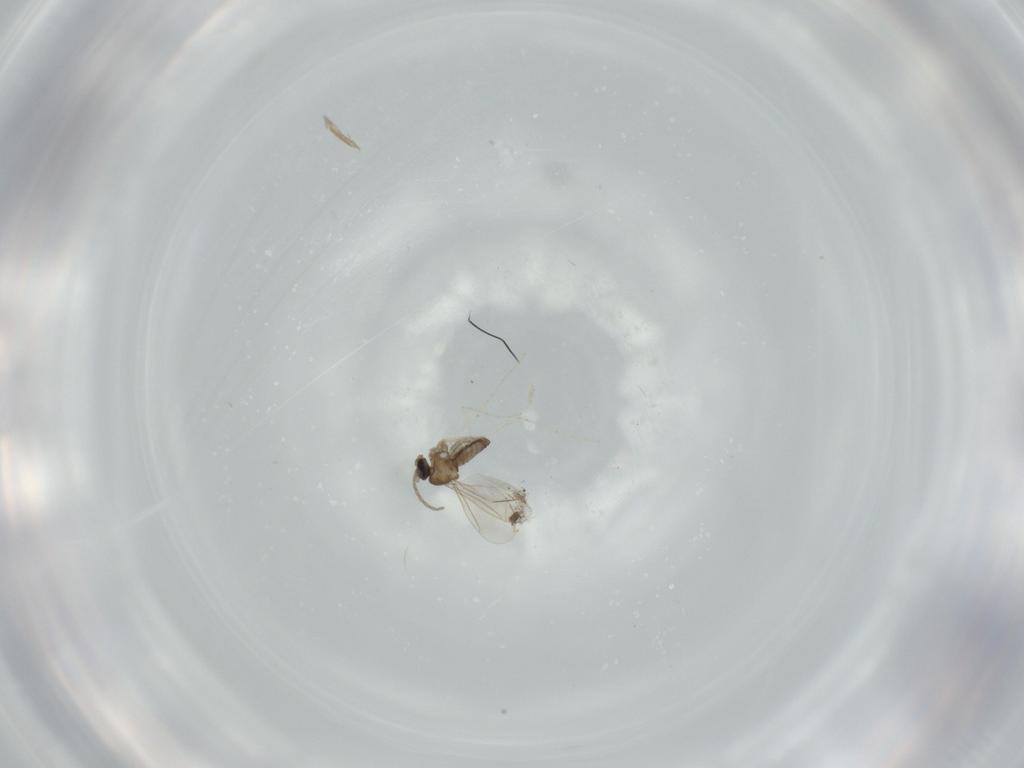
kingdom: Animalia
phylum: Arthropoda
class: Insecta
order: Diptera
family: Cecidomyiidae
